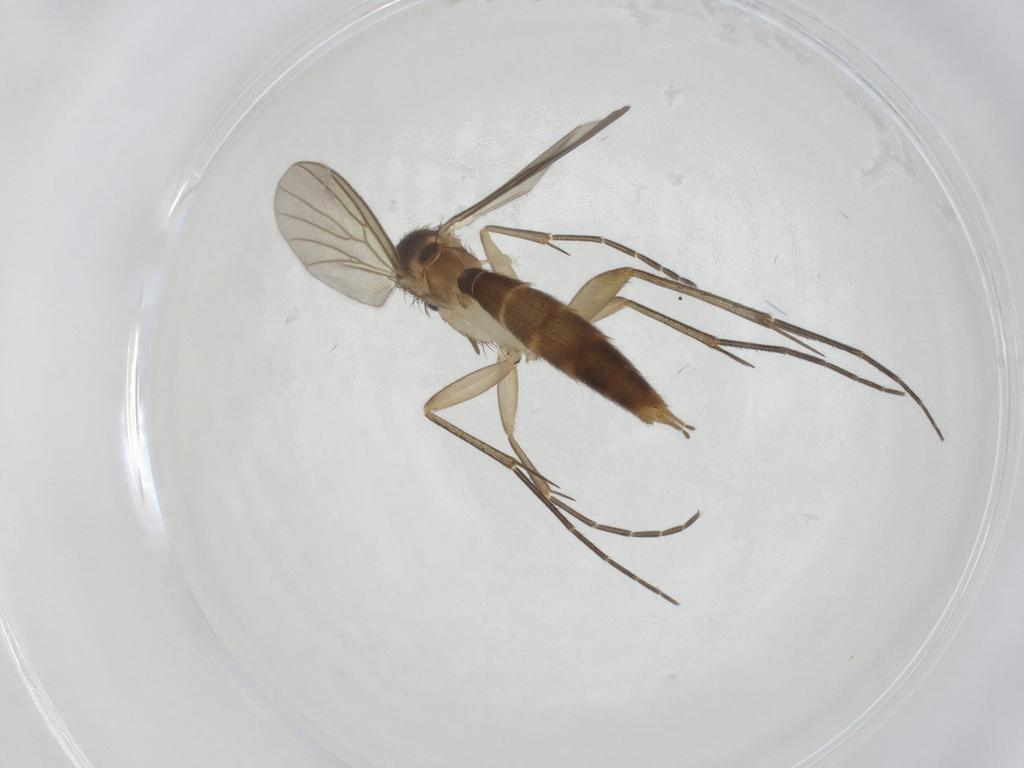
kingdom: Animalia
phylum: Arthropoda
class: Insecta
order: Diptera
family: Mycetophilidae
